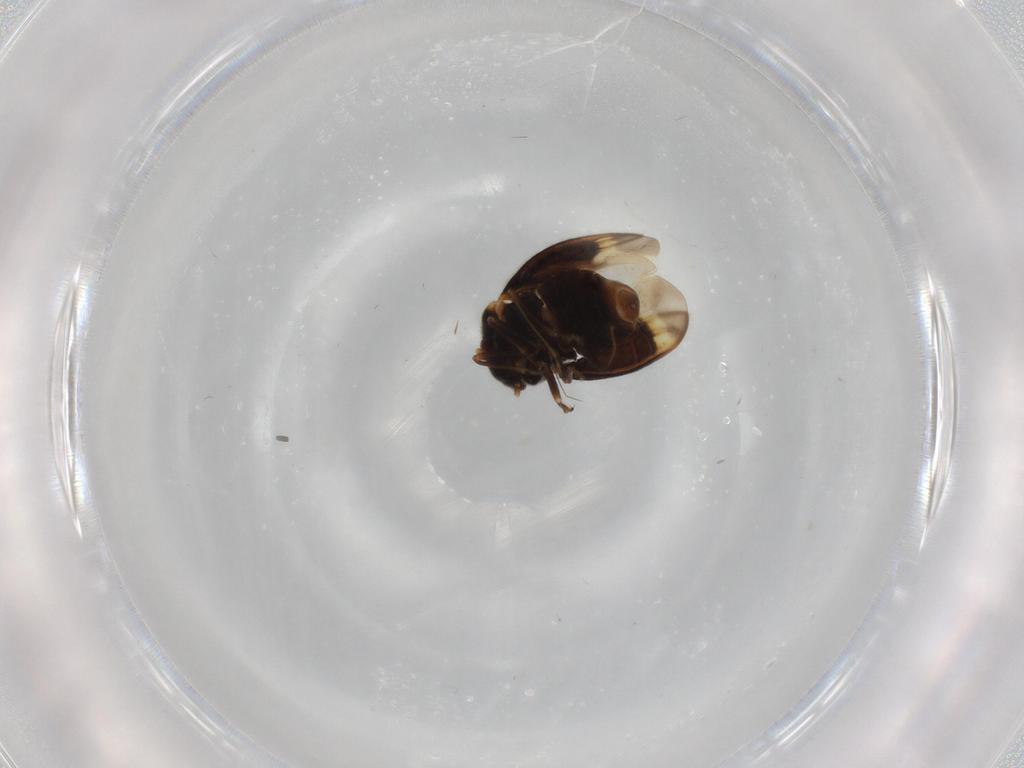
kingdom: Animalia
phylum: Arthropoda
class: Insecta
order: Hemiptera
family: Schizopteridae
